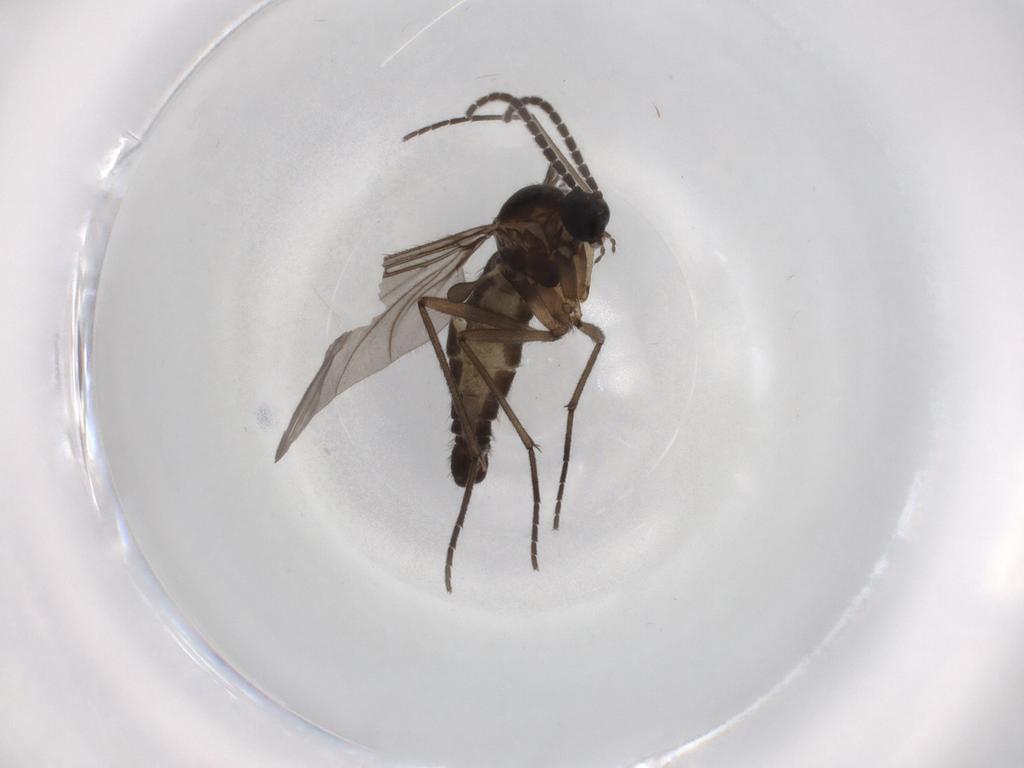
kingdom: Animalia
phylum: Arthropoda
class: Insecta
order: Diptera
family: Sciaridae
